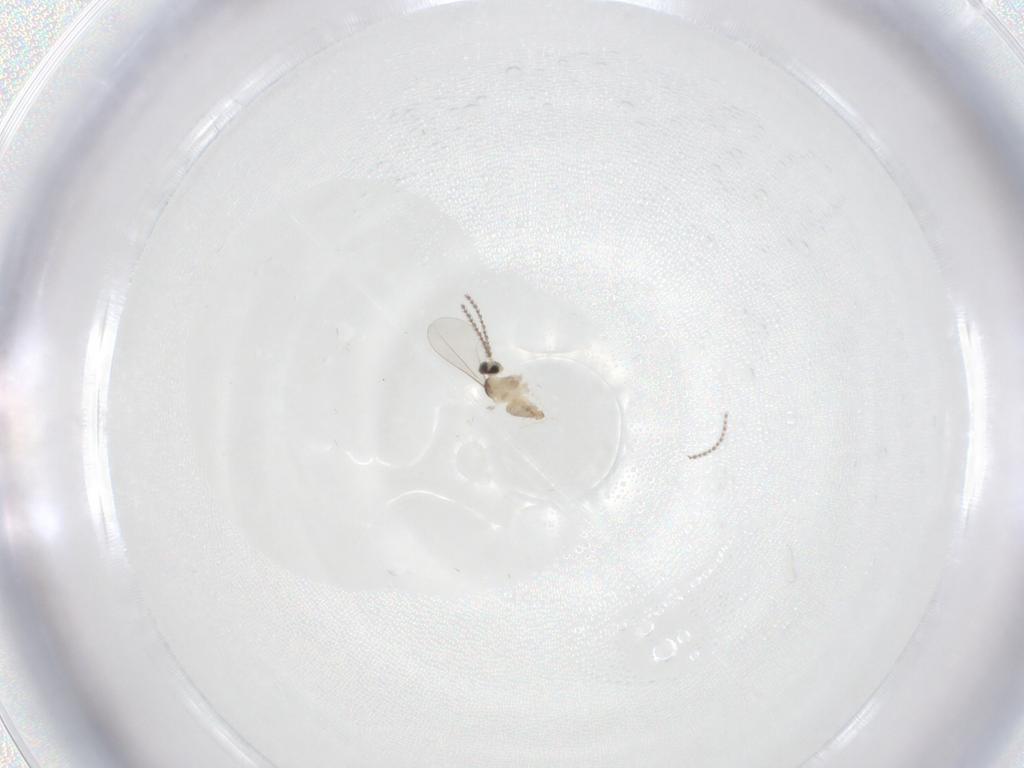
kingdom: Animalia
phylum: Arthropoda
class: Insecta
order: Diptera
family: Cecidomyiidae
